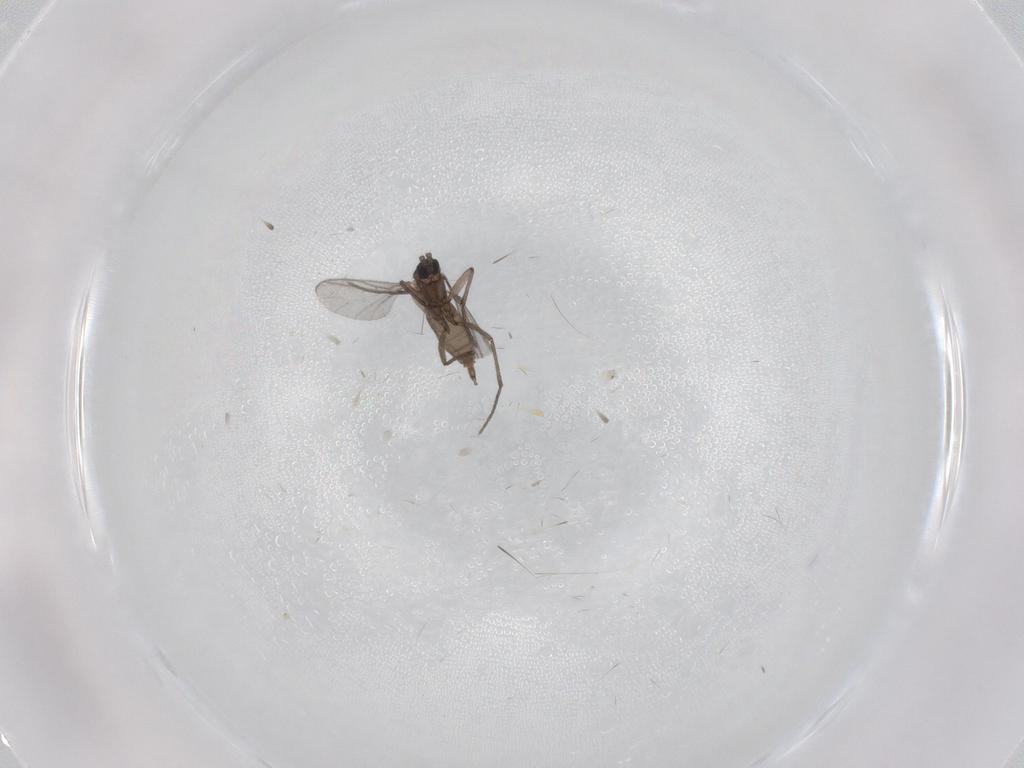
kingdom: Animalia
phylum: Arthropoda
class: Insecta
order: Diptera
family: Sciaridae
